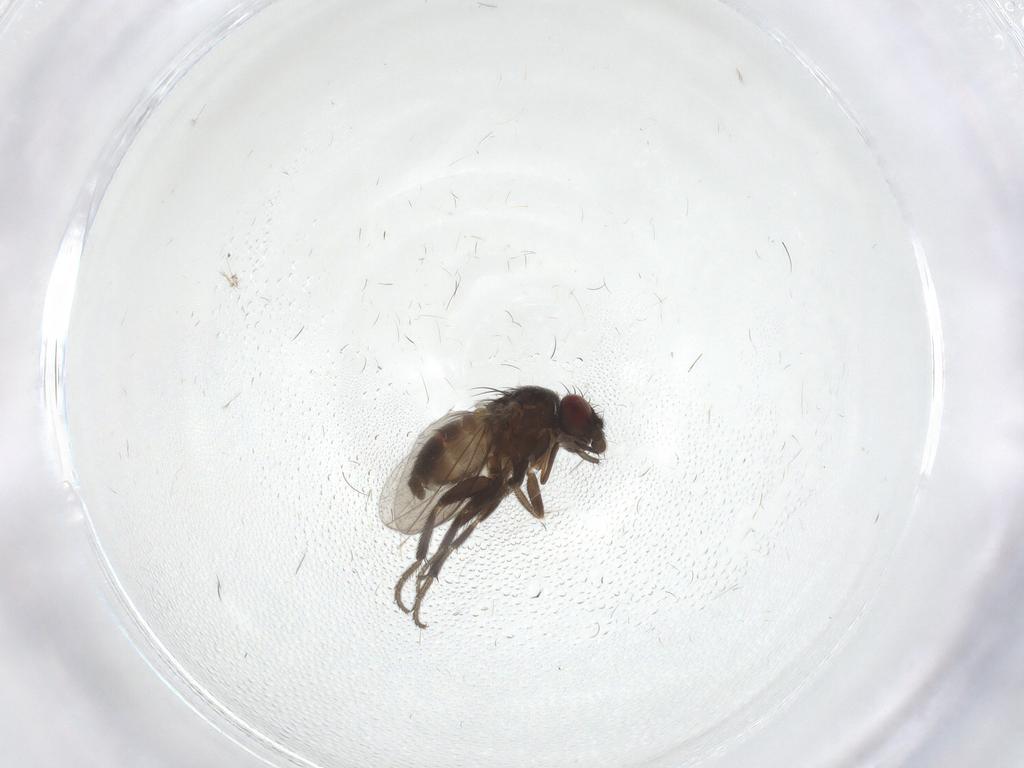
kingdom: Animalia
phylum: Arthropoda
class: Insecta
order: Diptera
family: Milichiidae
